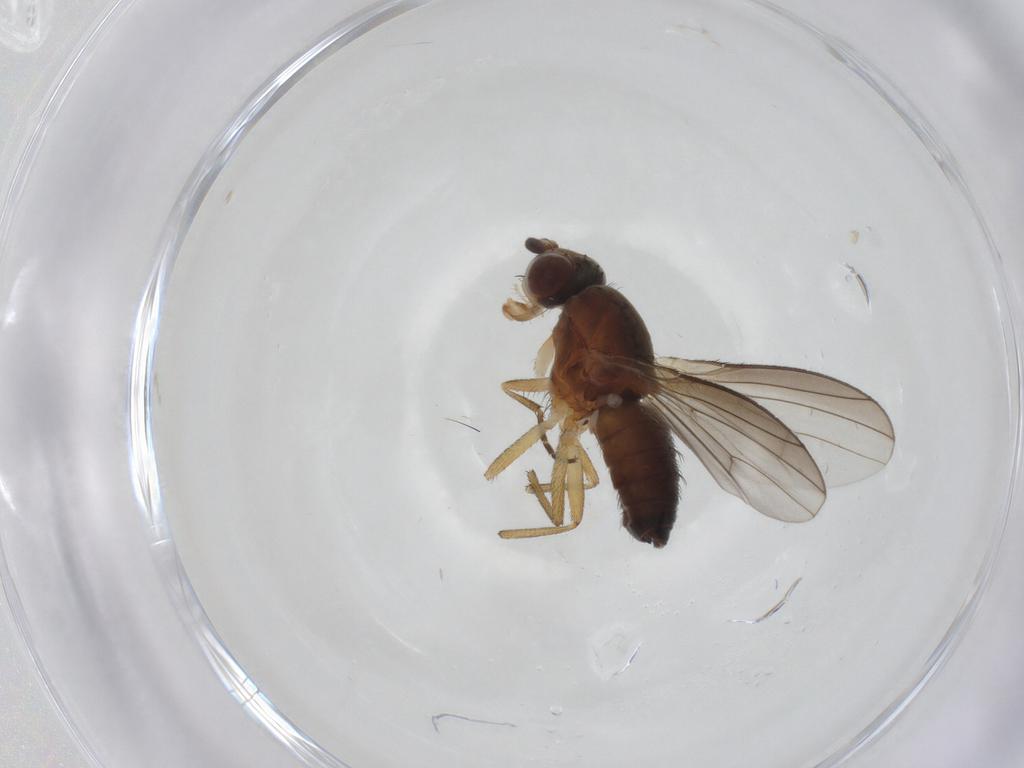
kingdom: Animalia
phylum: Arthropoda
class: Insecta
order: Diptera
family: Heleomyzidae
